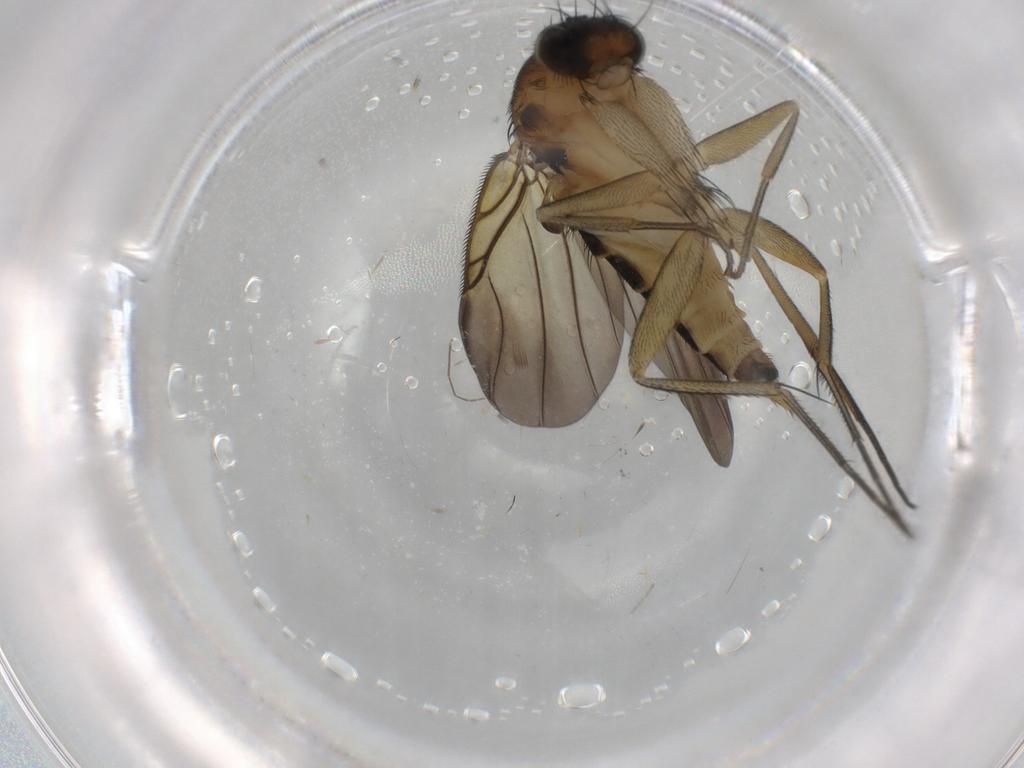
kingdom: Animalia
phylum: Arthropoda
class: Insecta
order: Diptera
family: Phoridae
